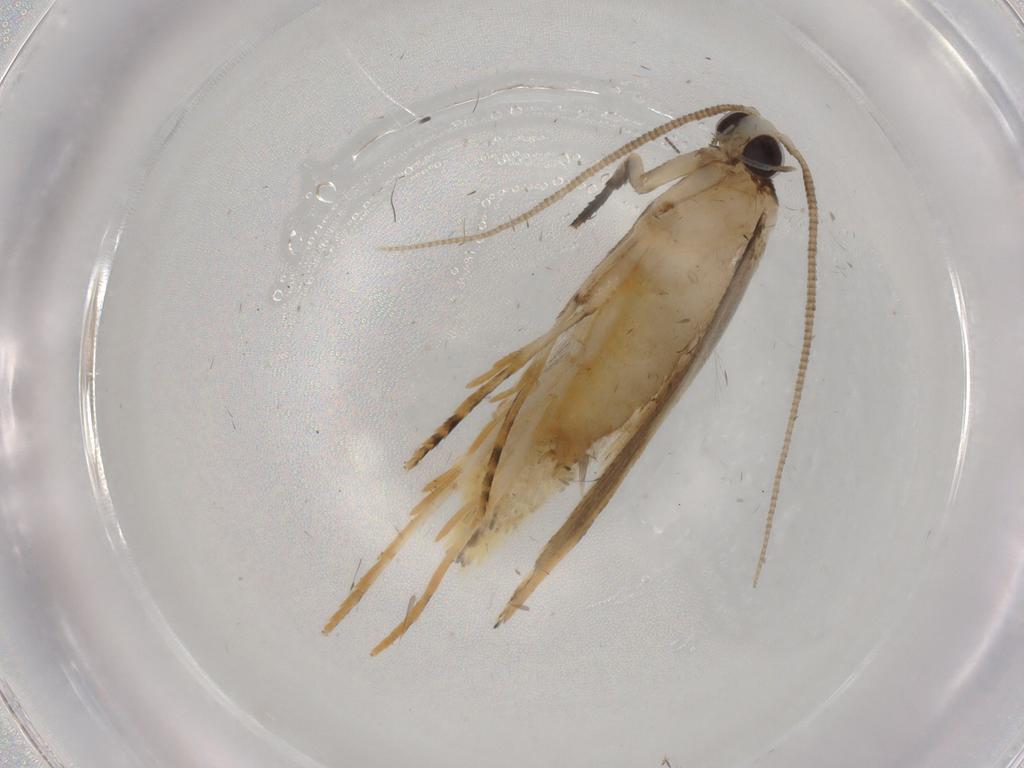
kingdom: Animalia
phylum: Arthropoda
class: Insecta
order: Lepidoptera
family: Tineidae
